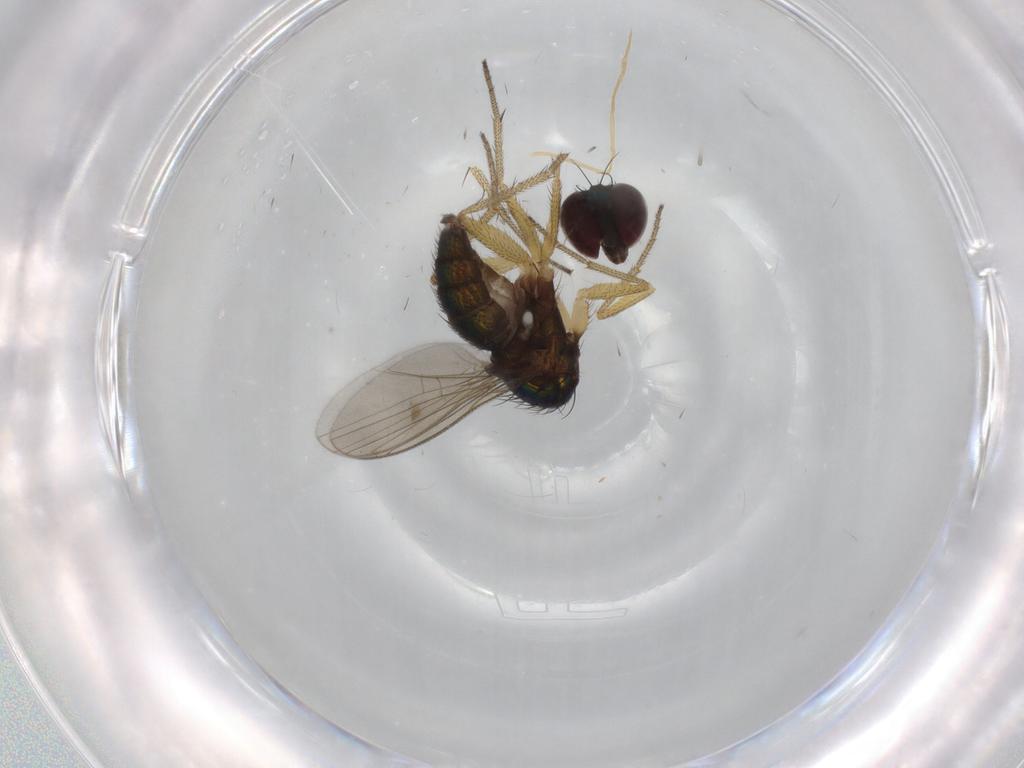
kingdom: Animalia
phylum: Arthropoda
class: Insecta
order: Diptera
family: Dolichopodidae
